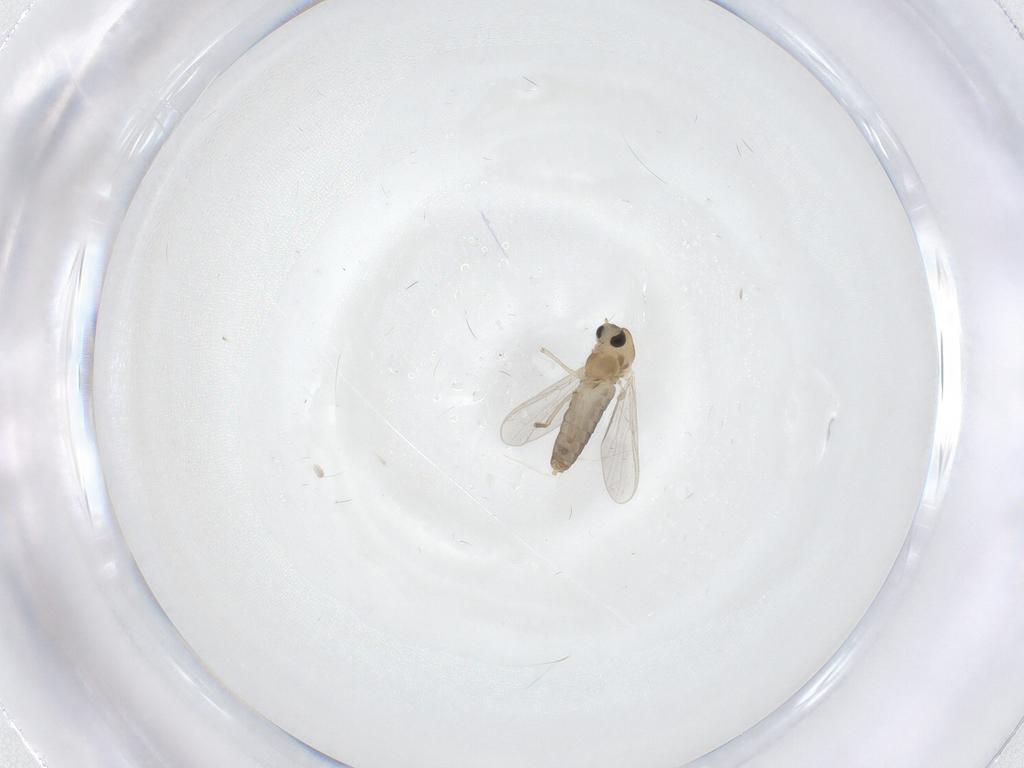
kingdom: Animalia
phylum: Arthropoda
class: Insecta
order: Diptera
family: Chironomidae
